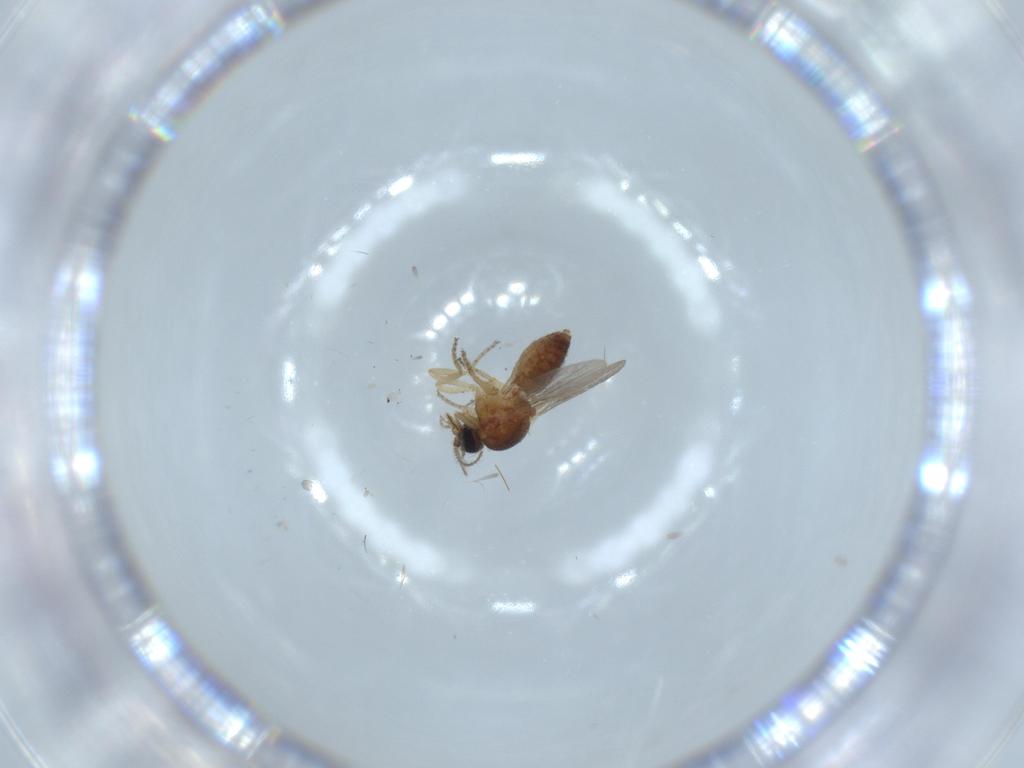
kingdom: Animalia
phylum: Arthropoda
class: Insecta
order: Diptera
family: Ceratopogonidae
